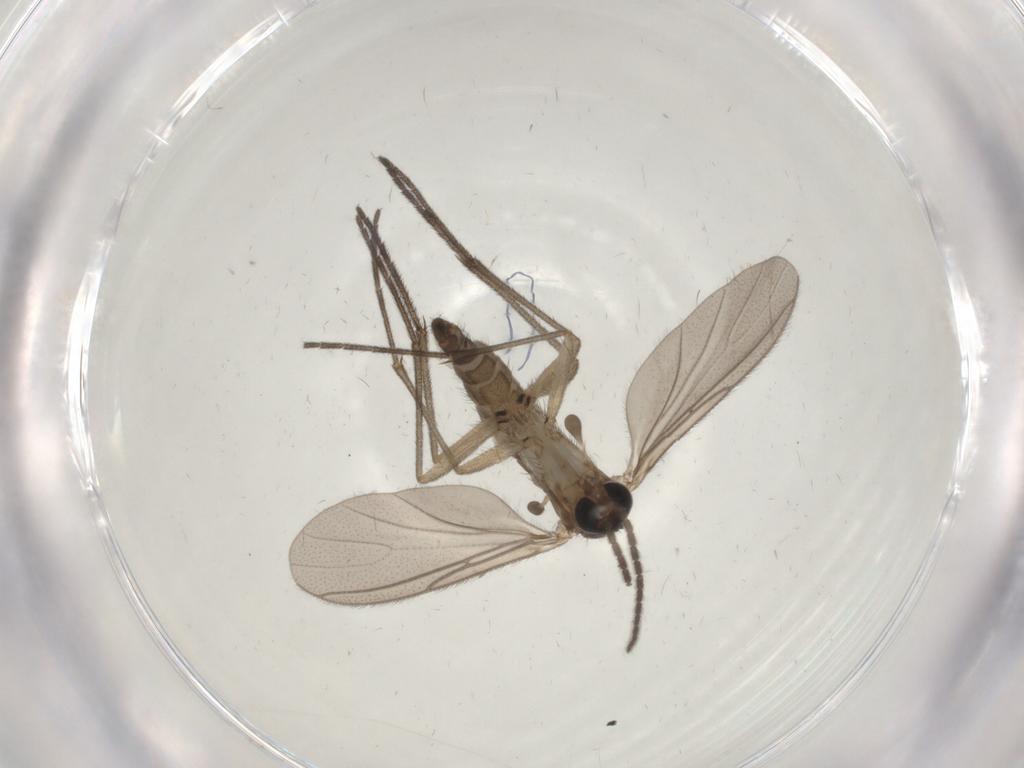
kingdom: Animalia
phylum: Arthropoda
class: Insecta
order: Diptera
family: Sciaridae
